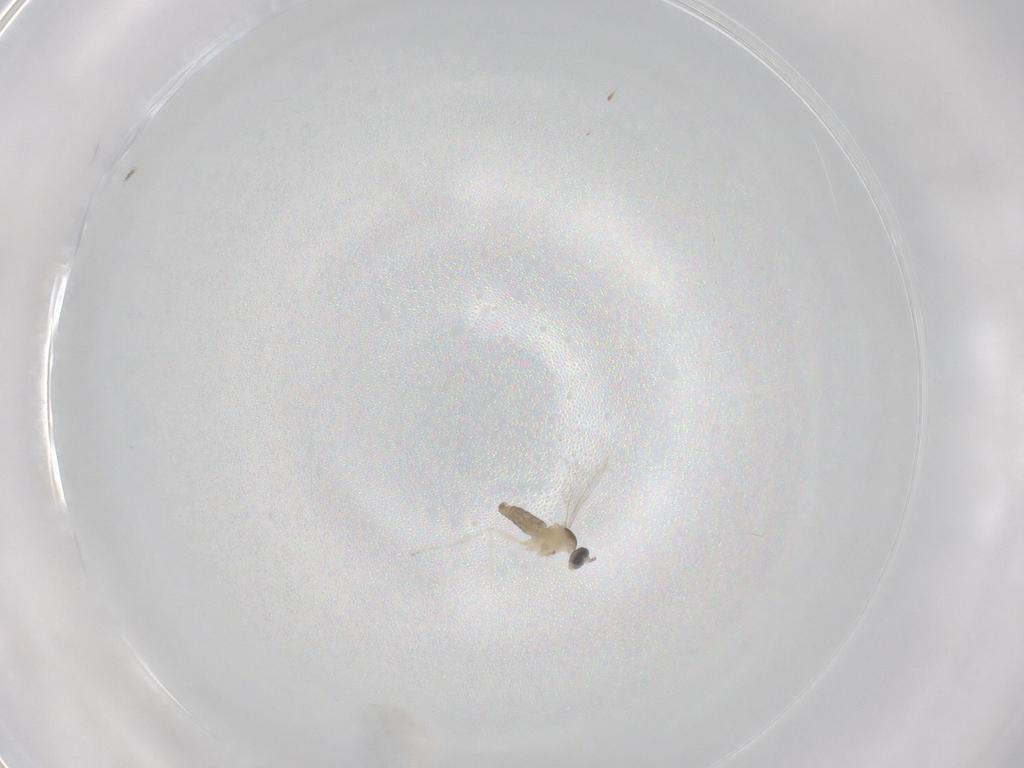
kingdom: Animalia
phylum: Arthropoda
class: Insecta
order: Diptera
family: Cecidomyiidae
